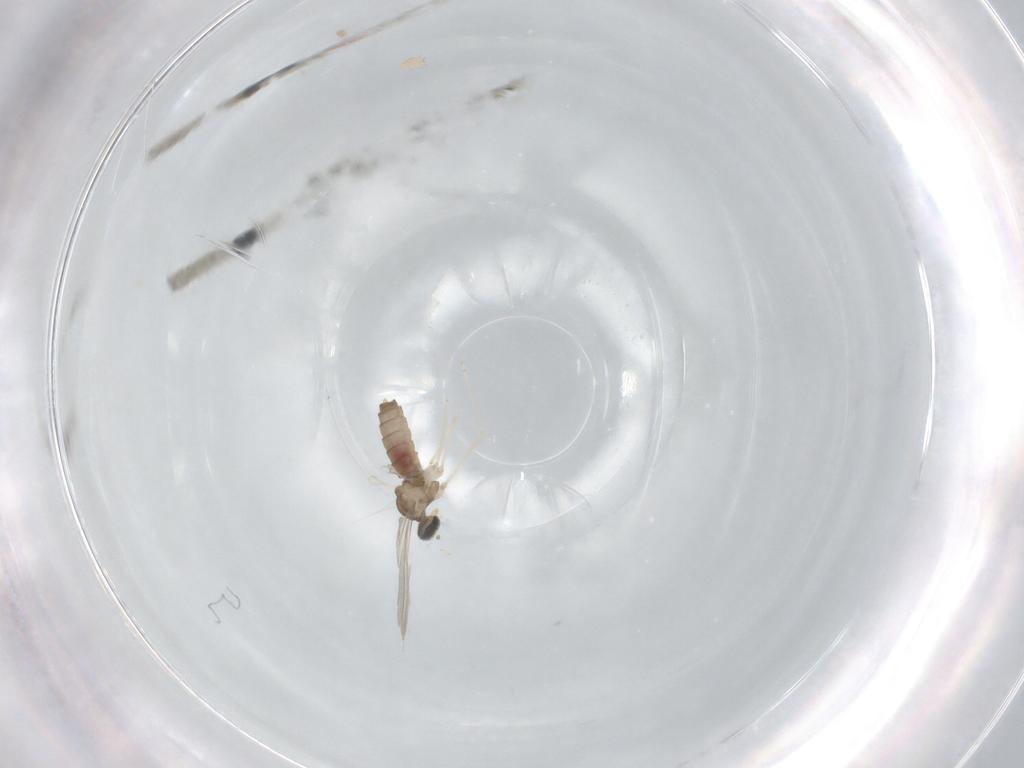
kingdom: Animalia
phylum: Arthropoda
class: Insecta
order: Diptera
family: Cecidomyiidae
